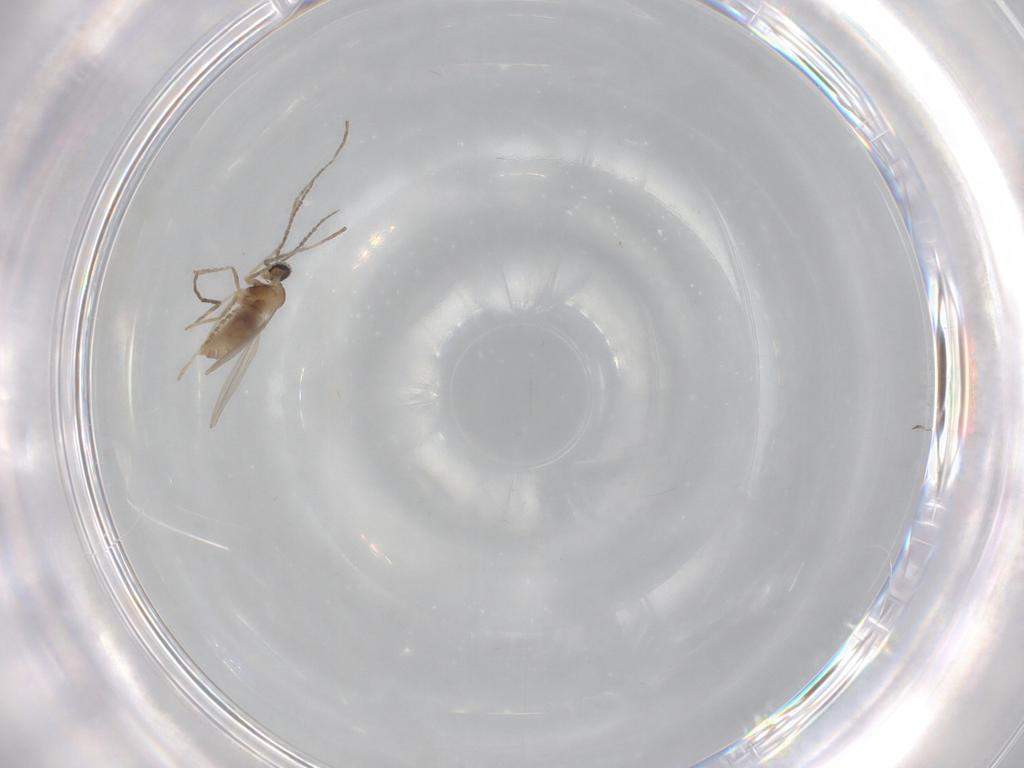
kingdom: Animalia
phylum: Arthropoda
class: Insecta
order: Diptera
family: Cecidomyiidae
